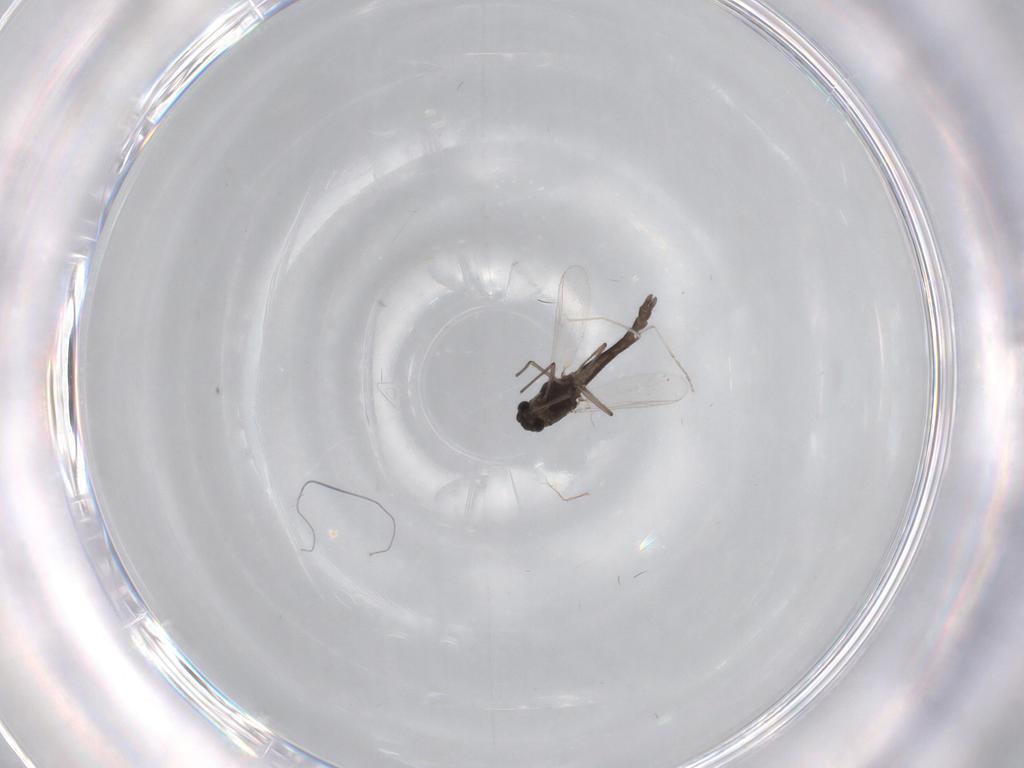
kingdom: Animalia
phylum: Arthropoda
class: Insecta
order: Diptera
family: Chironomidae
